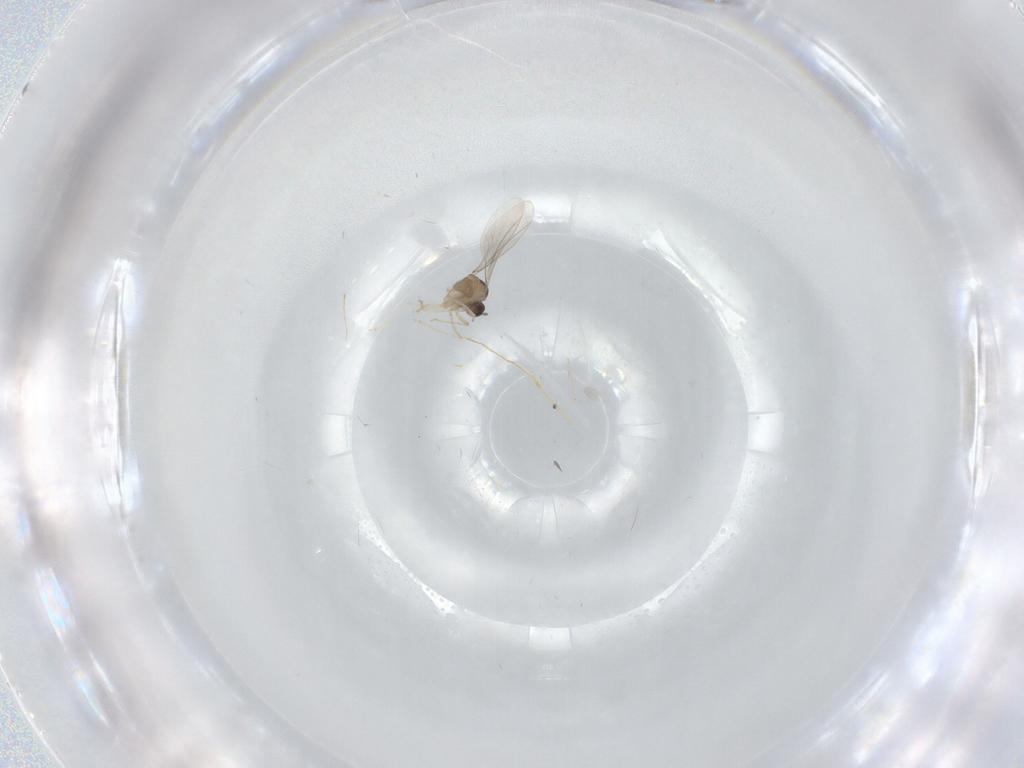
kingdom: Animalia
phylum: Arthropoda
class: Insecta
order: Diptera
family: Cecidomyiidae
